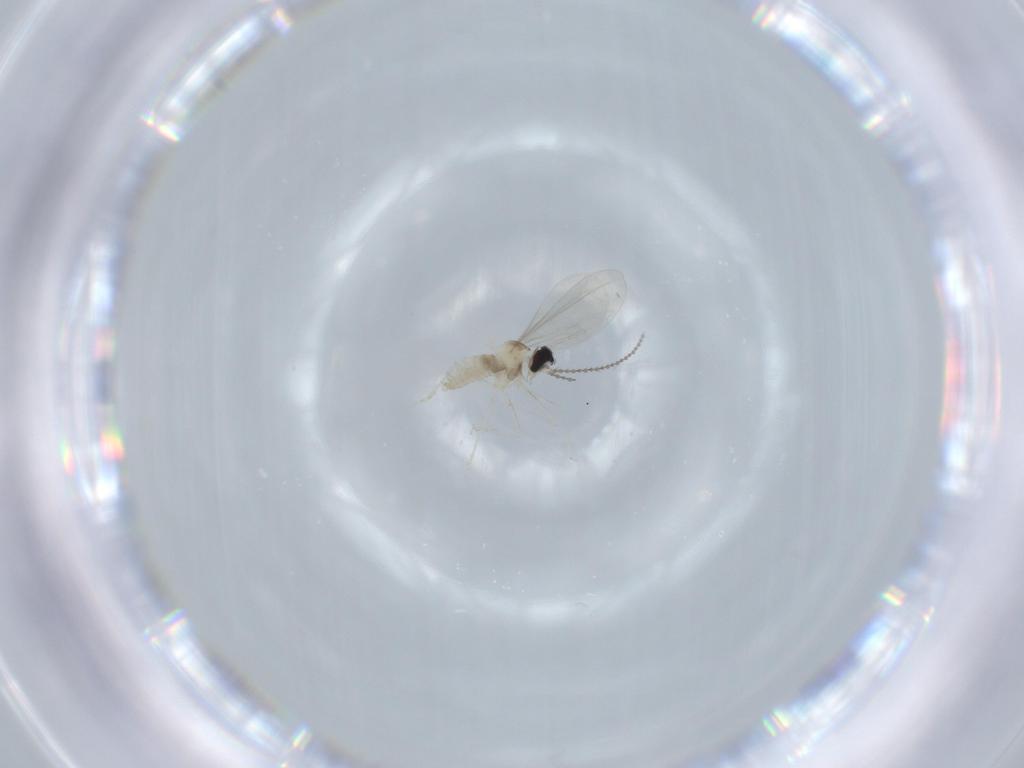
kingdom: Animalia
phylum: Arthropoda
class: Insecta
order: Diptera
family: Cecidomyiidae
